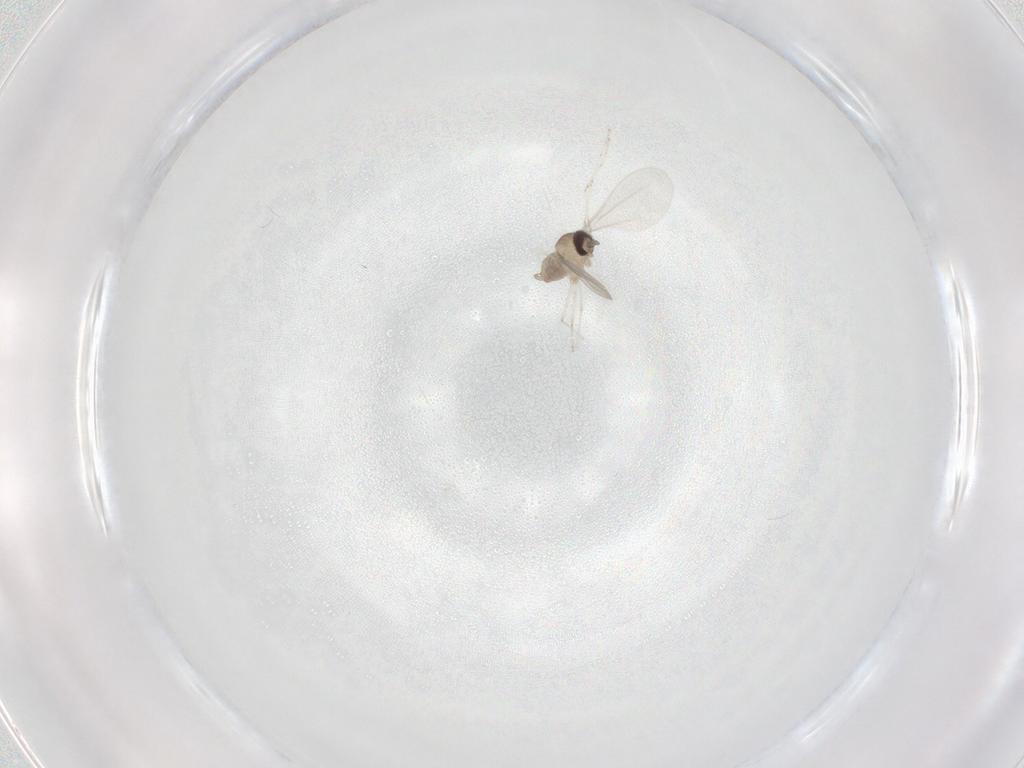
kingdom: Animalia
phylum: Arthropoda
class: Insecta
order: Diptera
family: Cecidomyiidae
